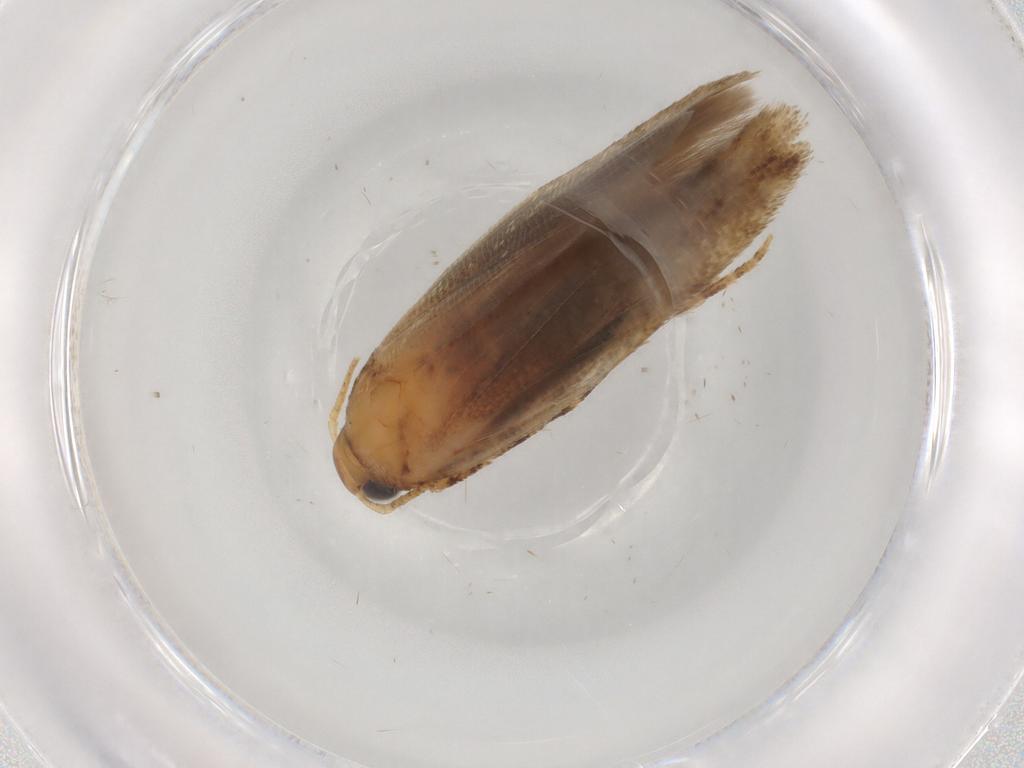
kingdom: Animalia
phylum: Arthropoda
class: Insecta
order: Lepidoptera
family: Gelechiidae
